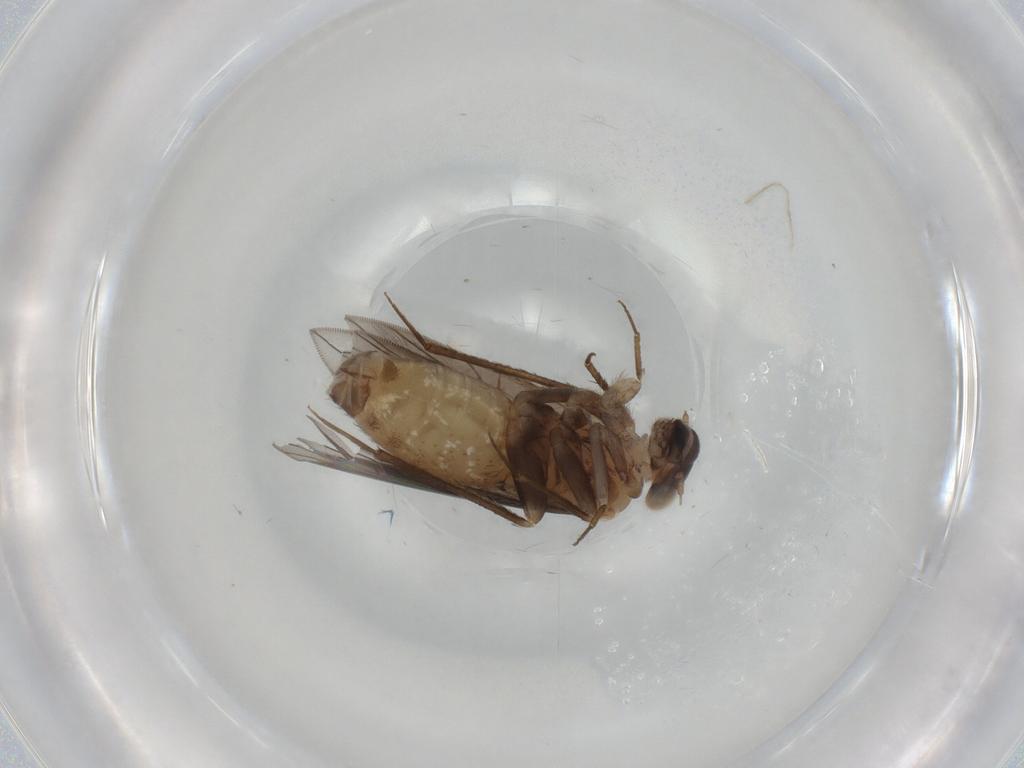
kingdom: Animalia
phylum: Arthropoda
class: Insecta
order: Psocodea
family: Lepidopsocidae
